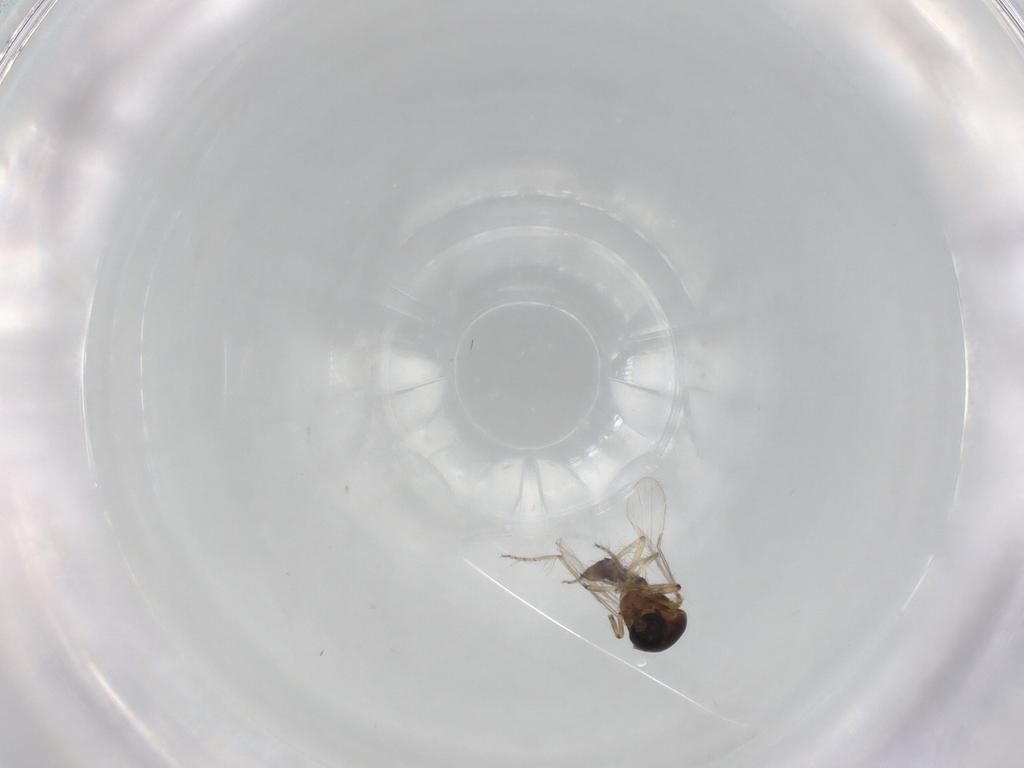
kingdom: Animalia
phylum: Arthropoda
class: Insecta
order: Diptera
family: Ceratopogonidae
